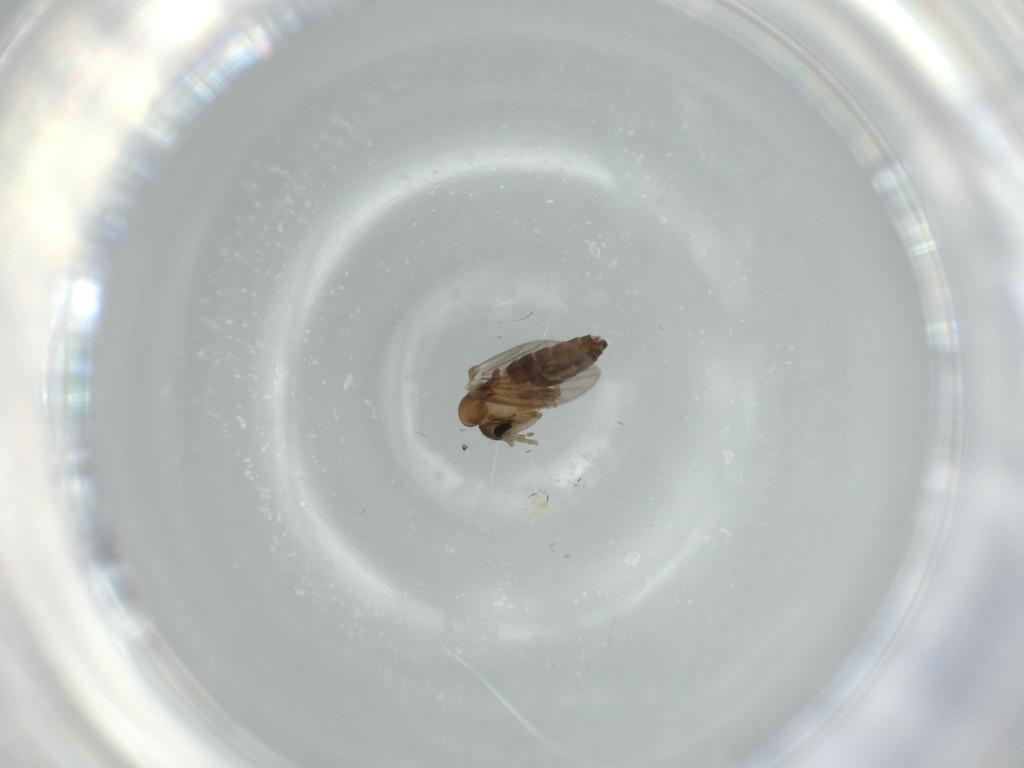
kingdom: Animalia
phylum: Arthropoda
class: Insecta
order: Diptera
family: Psychodidae
